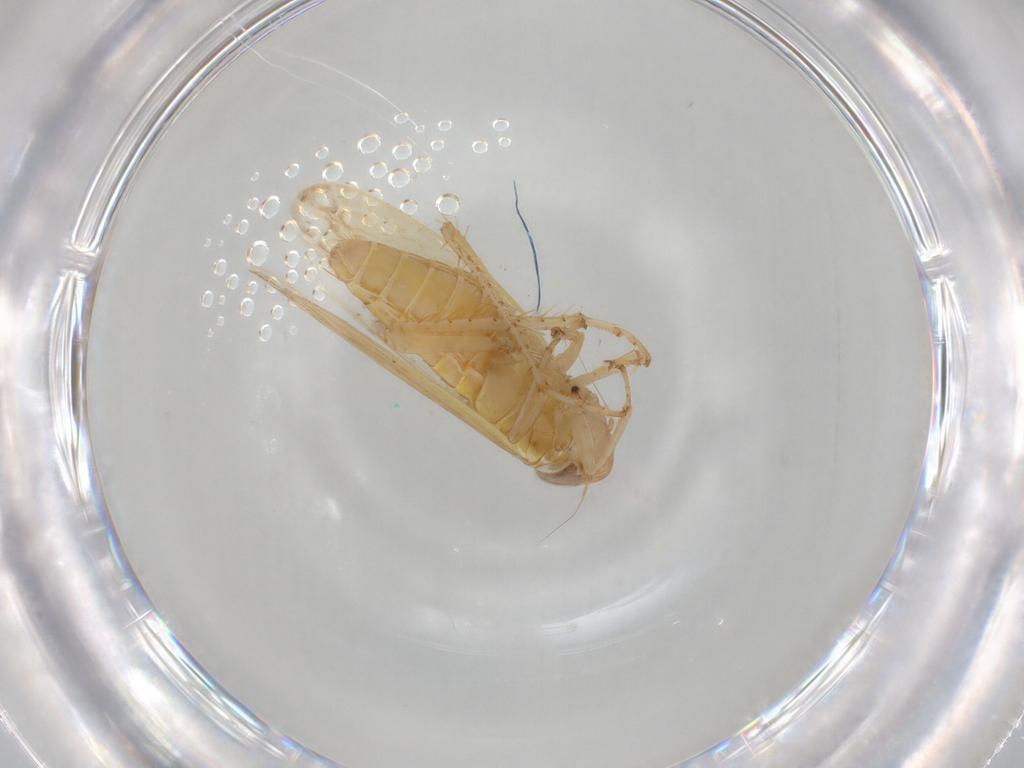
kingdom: Animalia
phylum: Arthropoda
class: Insecta
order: Hemiptera
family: Cicadellidae
